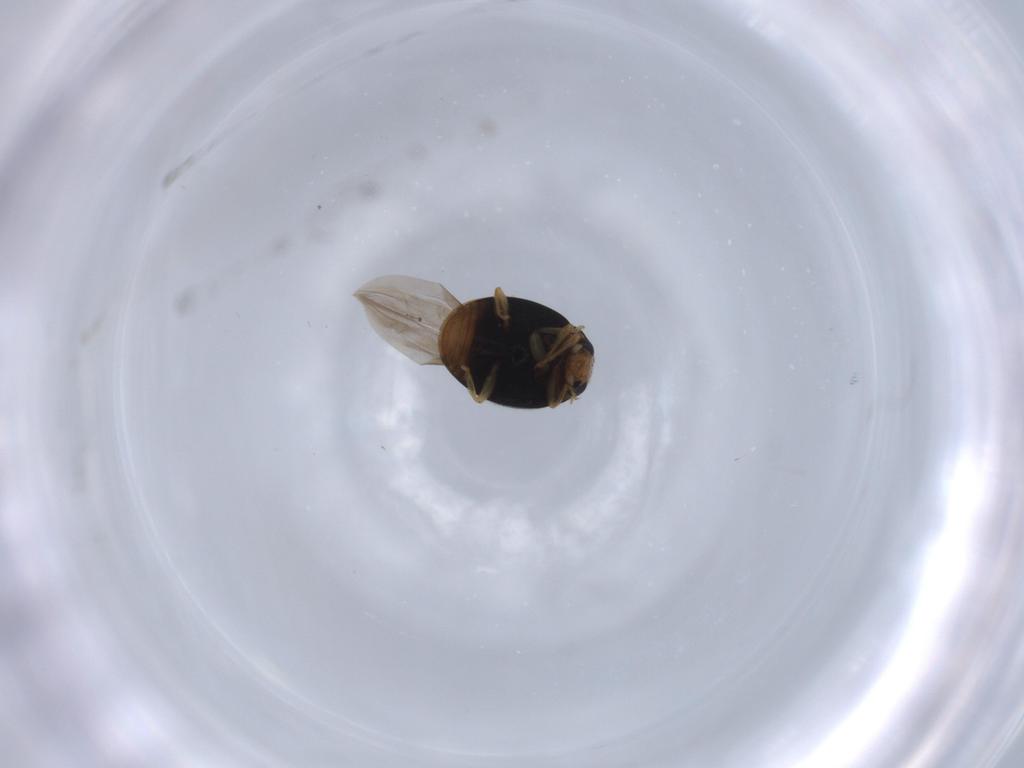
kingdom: Animalia
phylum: Arthropoda
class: Insecta
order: Coleoptera
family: Coccinellidae
